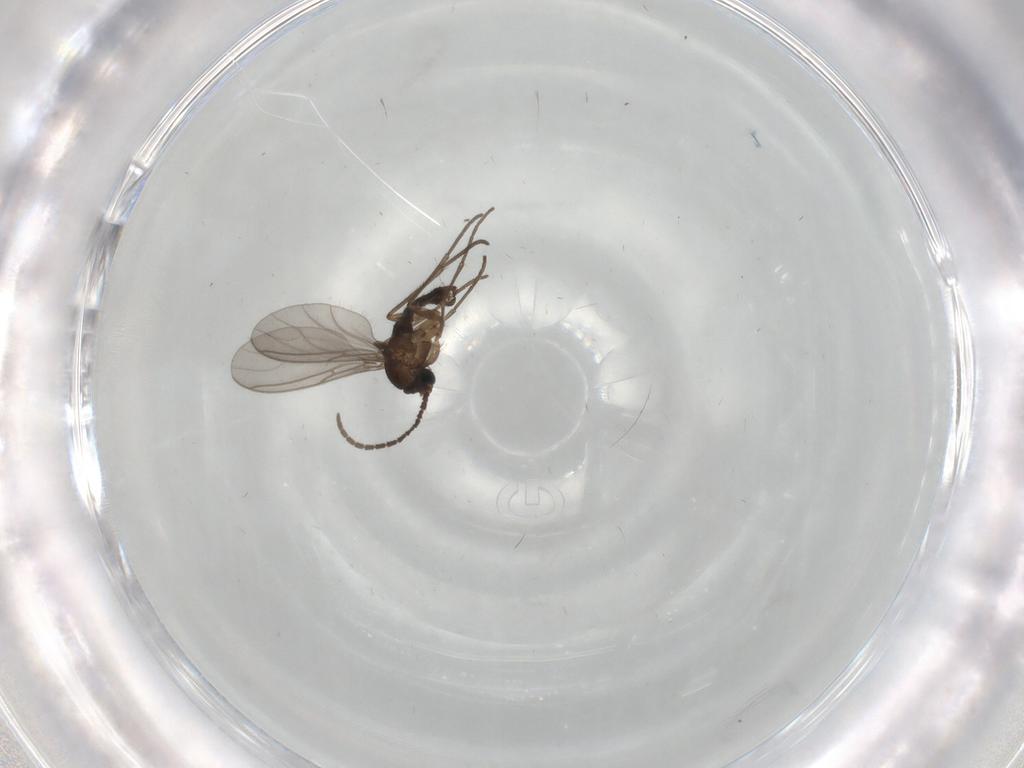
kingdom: Animalia
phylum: Arthropoda
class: Insecta
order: Diptera
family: Sciaridae
